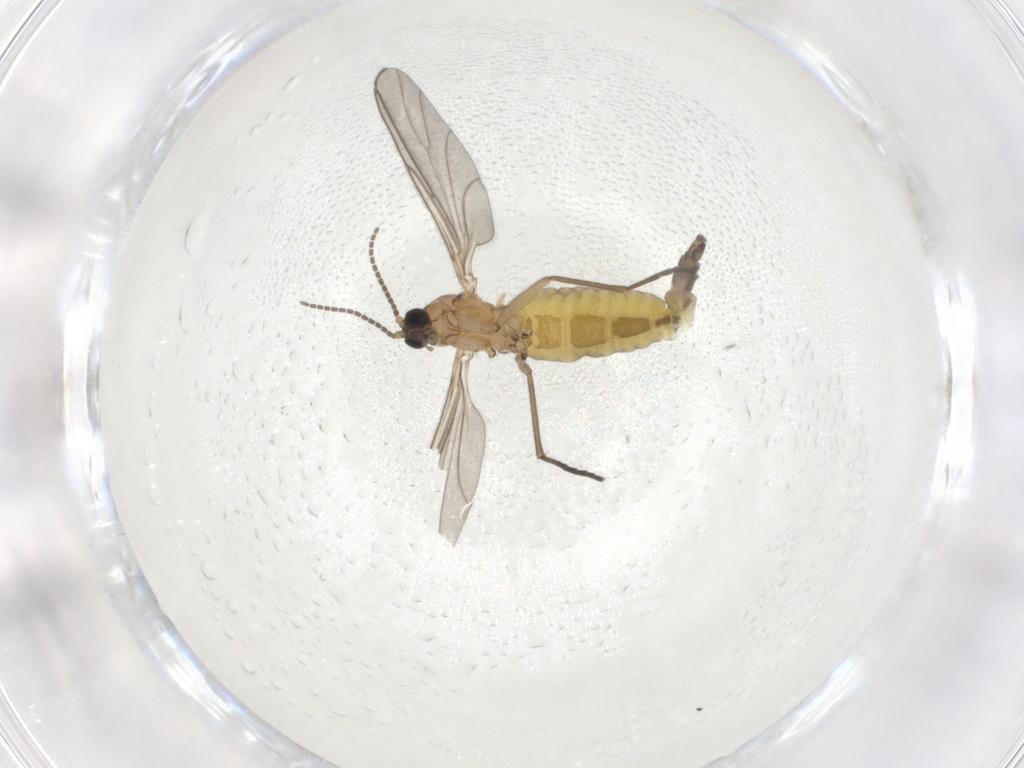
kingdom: Animalia
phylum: Arthropoda
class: Insecta
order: Diptera
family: Sciaridae
